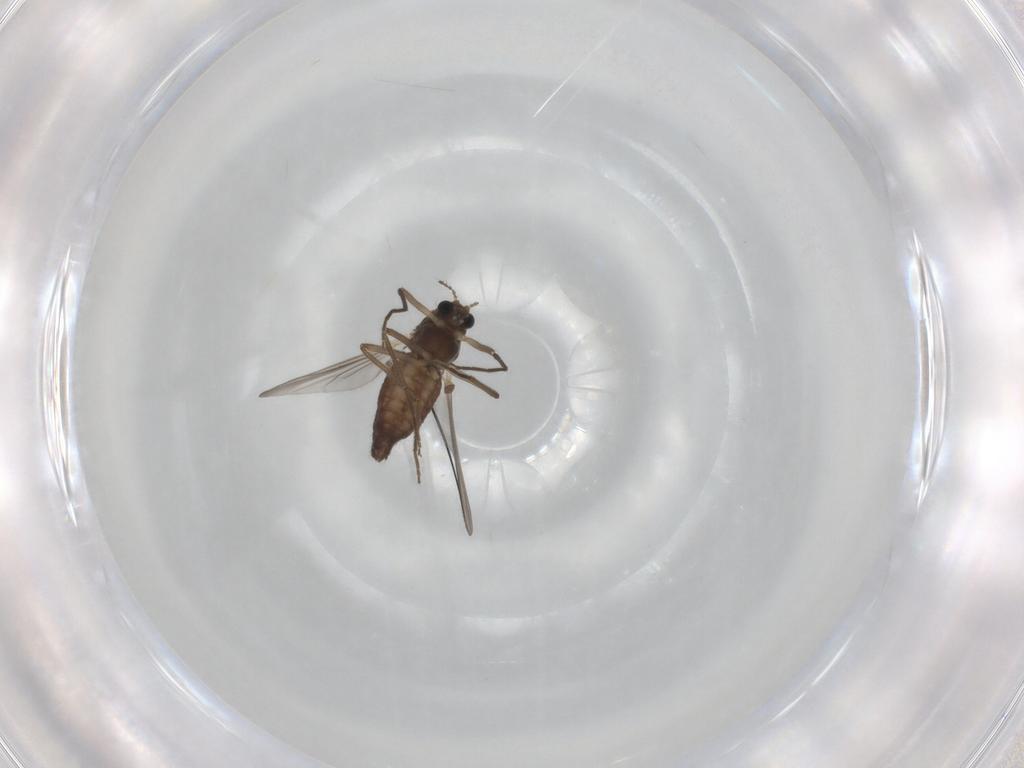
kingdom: Animalia
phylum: Arthropoda
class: Insecta
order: Diptera
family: Chironomidae
